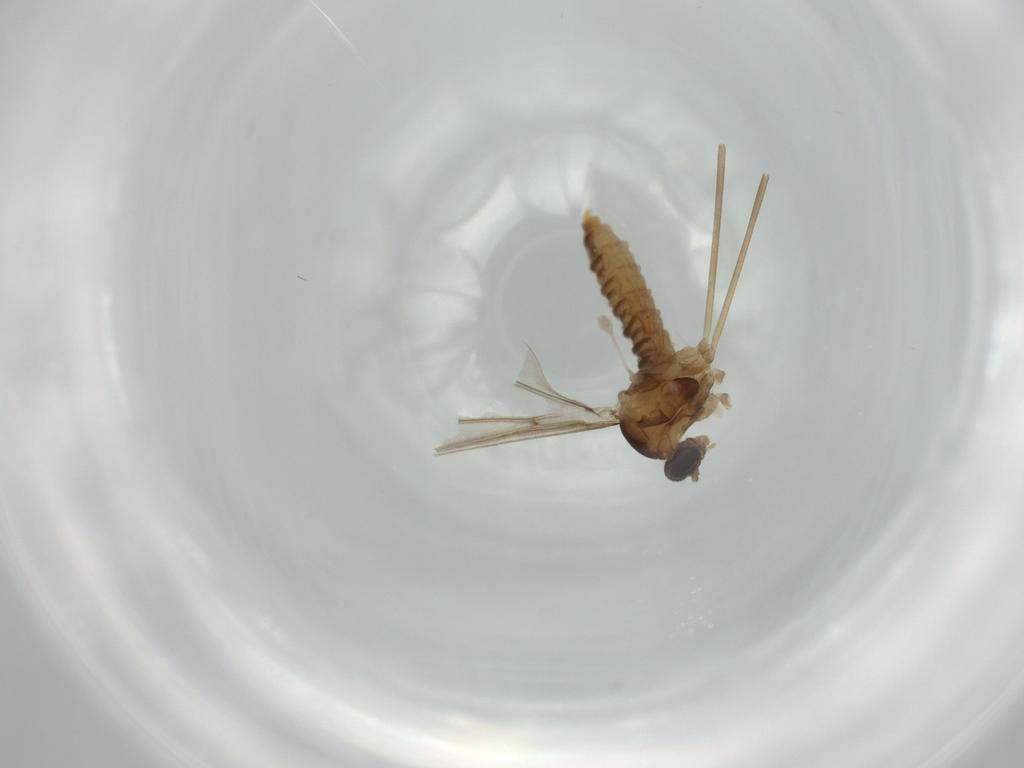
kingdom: Animalia
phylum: Arthropoda
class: Insecta
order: Diptera
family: Cecidomyiidae
